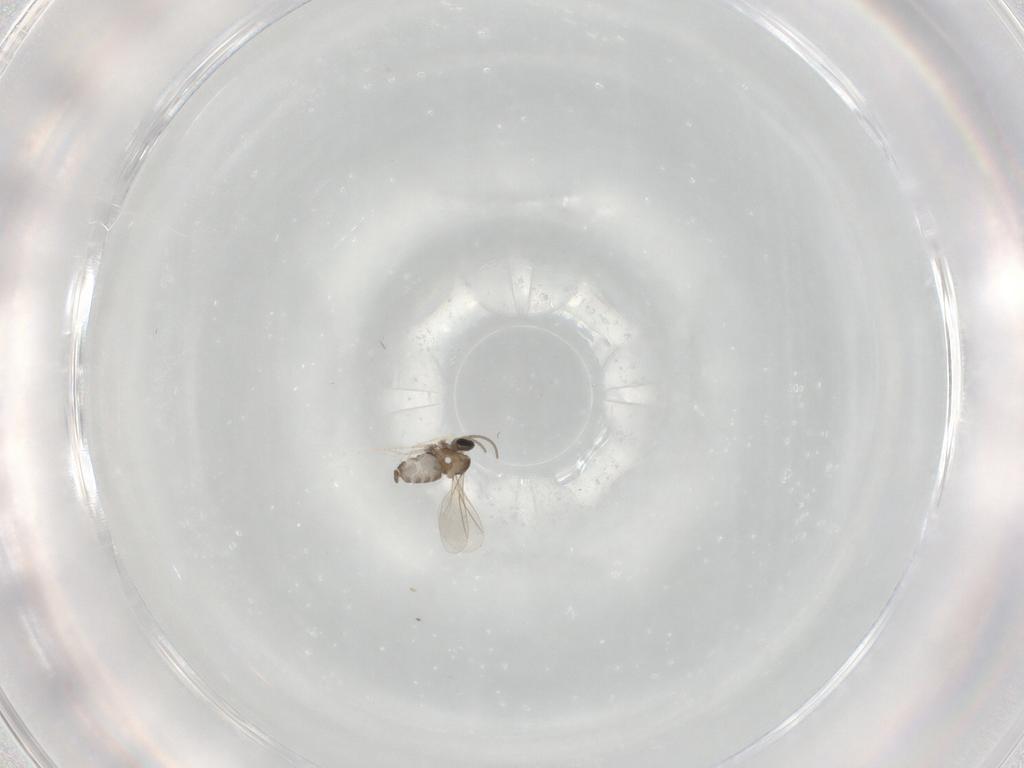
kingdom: Animalia
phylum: Arthropoda
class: Insecta
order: Diptera
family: Cecidomyiidae
